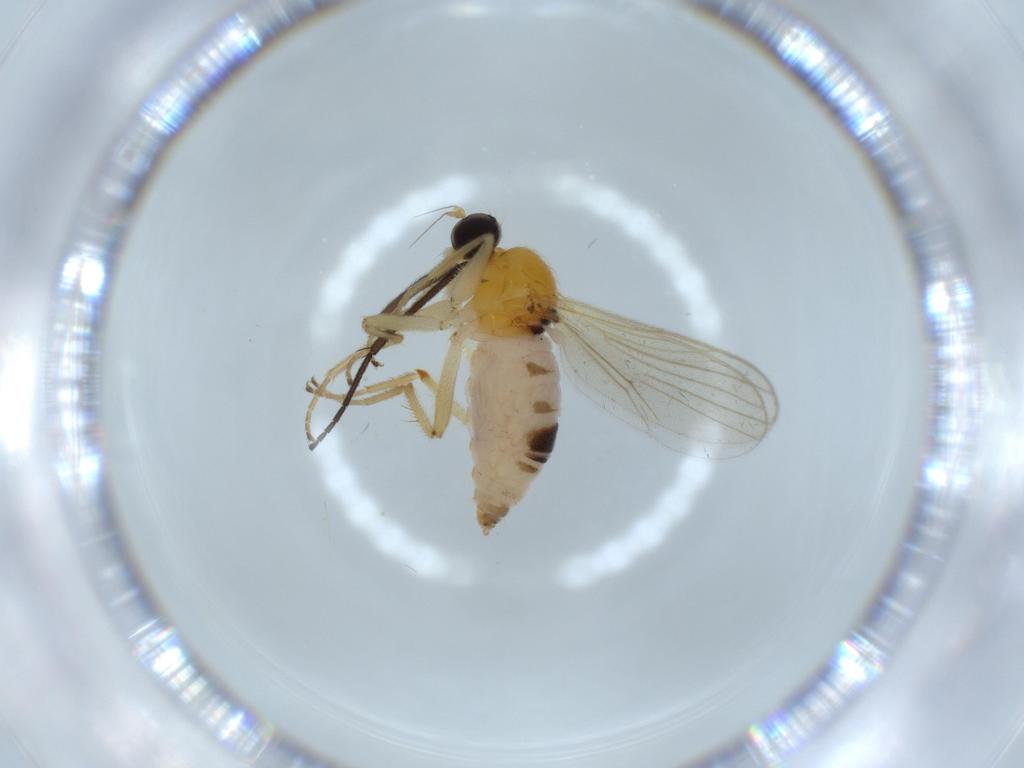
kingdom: Animalia
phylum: Arthropoda
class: Insecta
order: Diptera
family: Hybotidae
